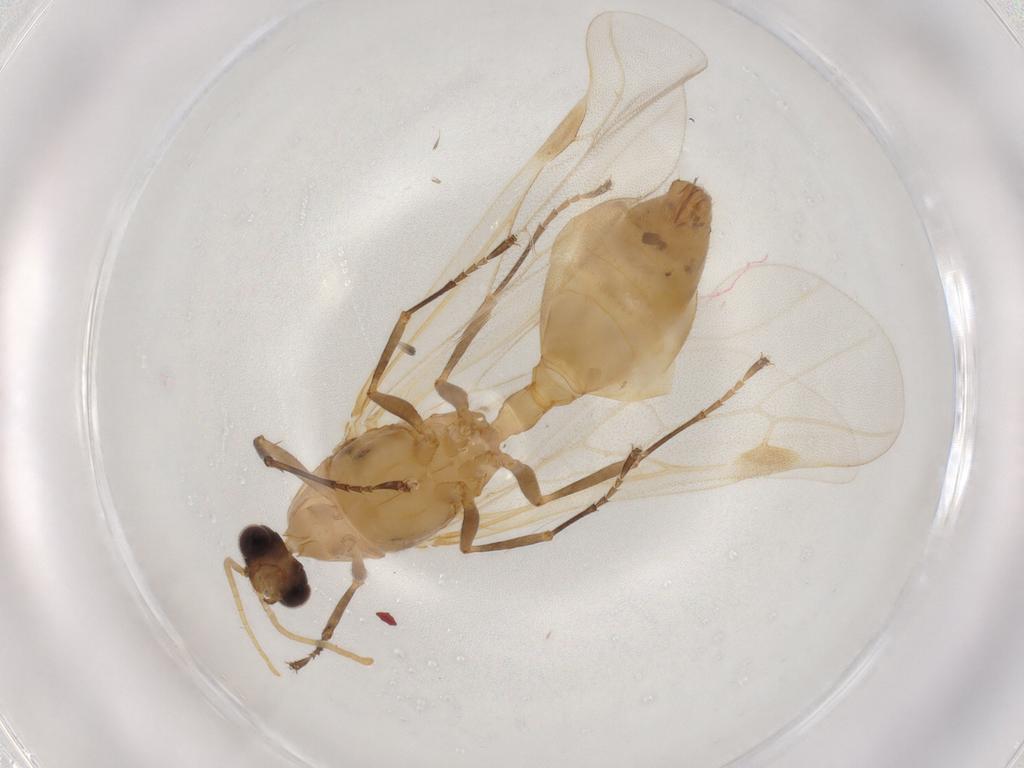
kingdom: Animalia
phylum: Arthropoda
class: Insecta
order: Hymenoptera
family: Formicidae
